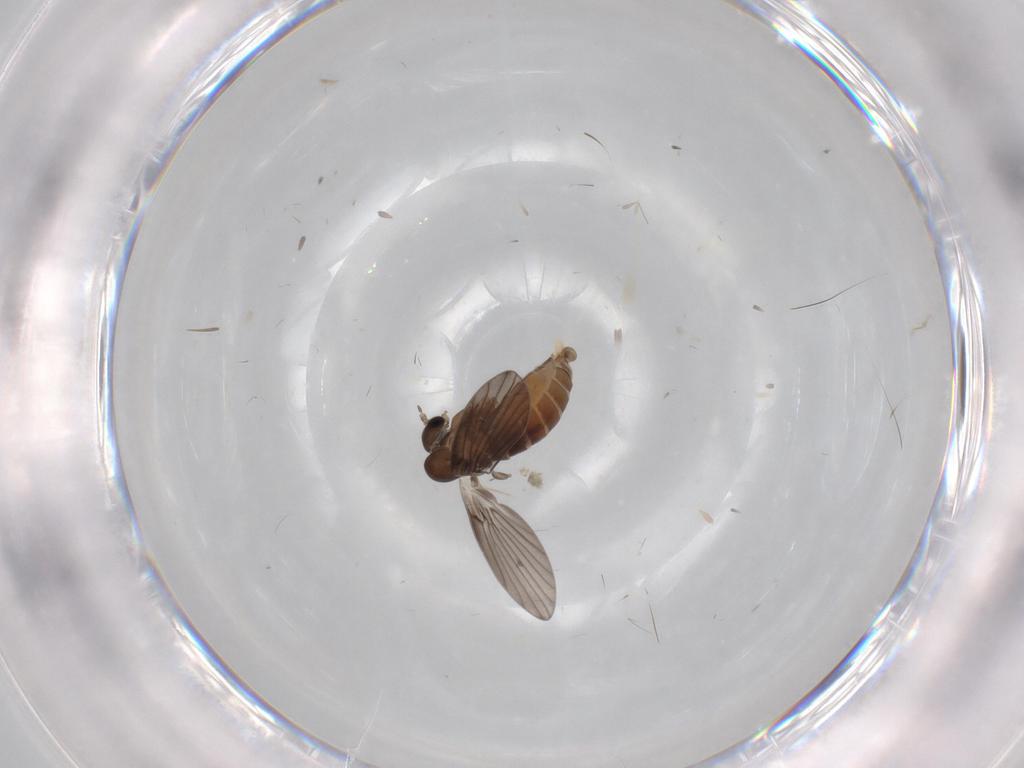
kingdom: Animalia
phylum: Arthropoda
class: Insecta
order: Diptera
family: Psychodidae
